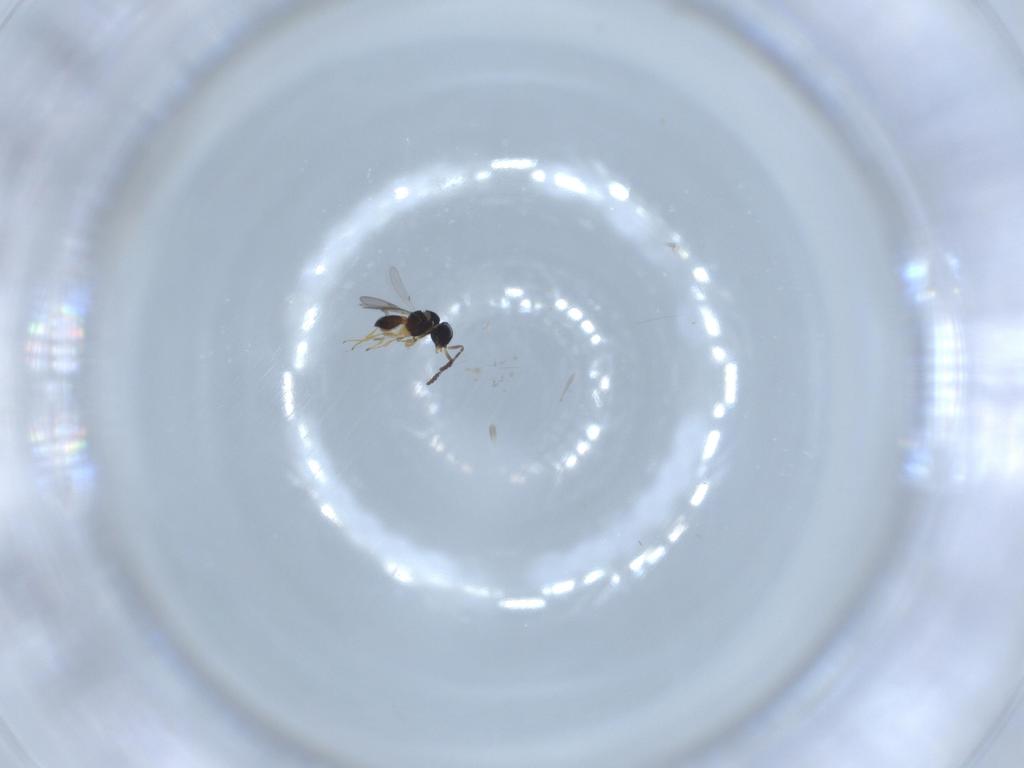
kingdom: Animalia
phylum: Arthropoda
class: Insecta
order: Hymenoptera
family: Scelionidae
